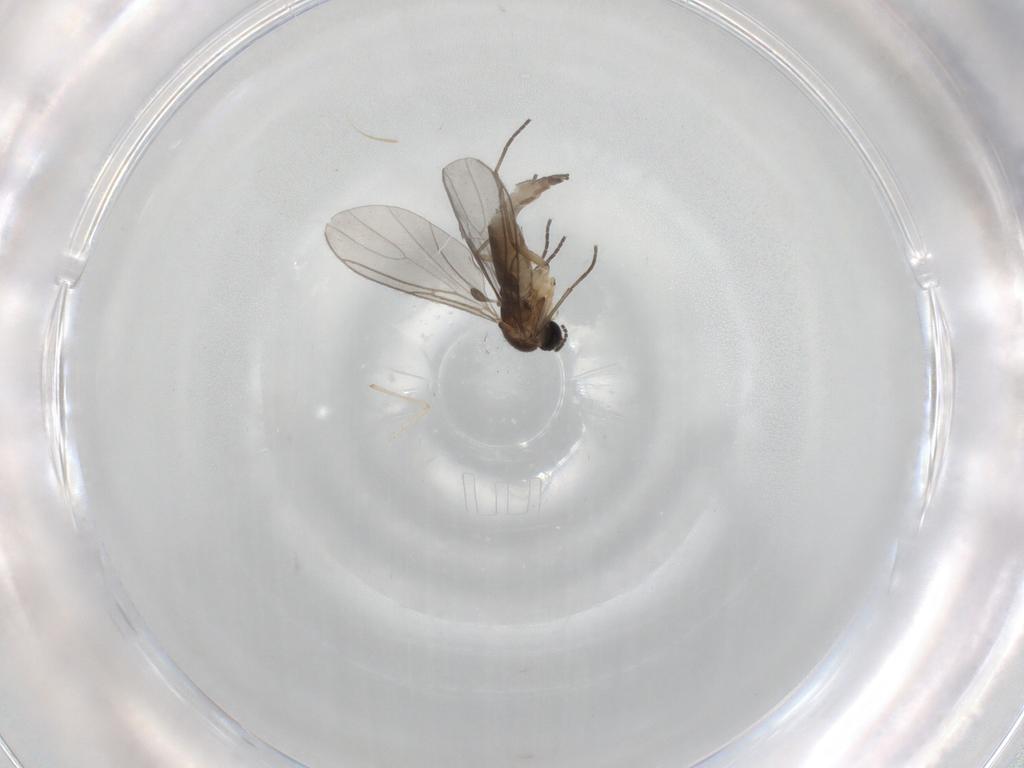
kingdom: Animalia
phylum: Arthropoda
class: Insecta
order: Diptera
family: Sciaridae
